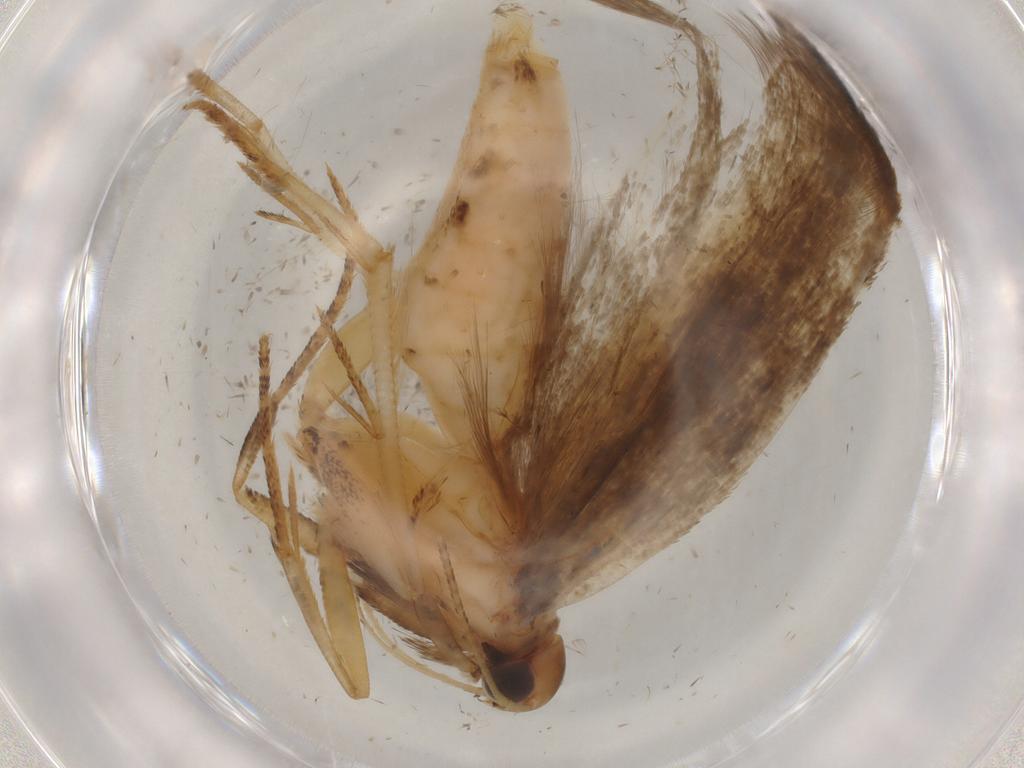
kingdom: Animalia
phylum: Arthropoda
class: Insecta
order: Lepidoptera
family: Gelechiidae
